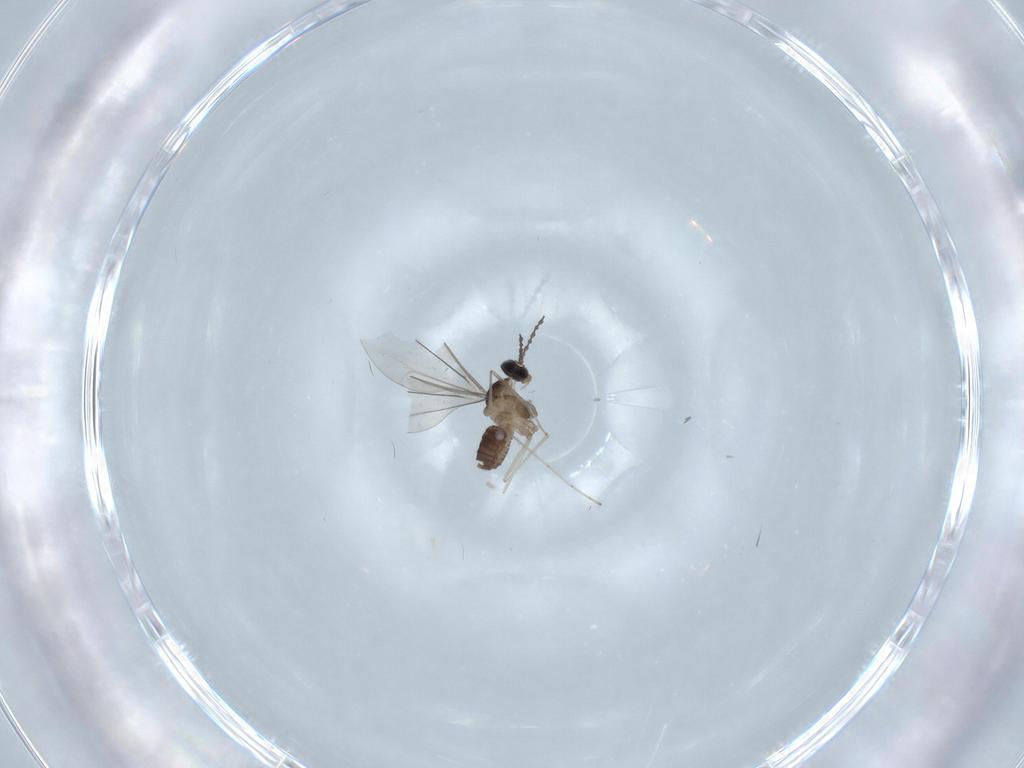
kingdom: Animalia
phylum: Arthropoda
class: Insecta
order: Diptera
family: Cecidomyiidae
